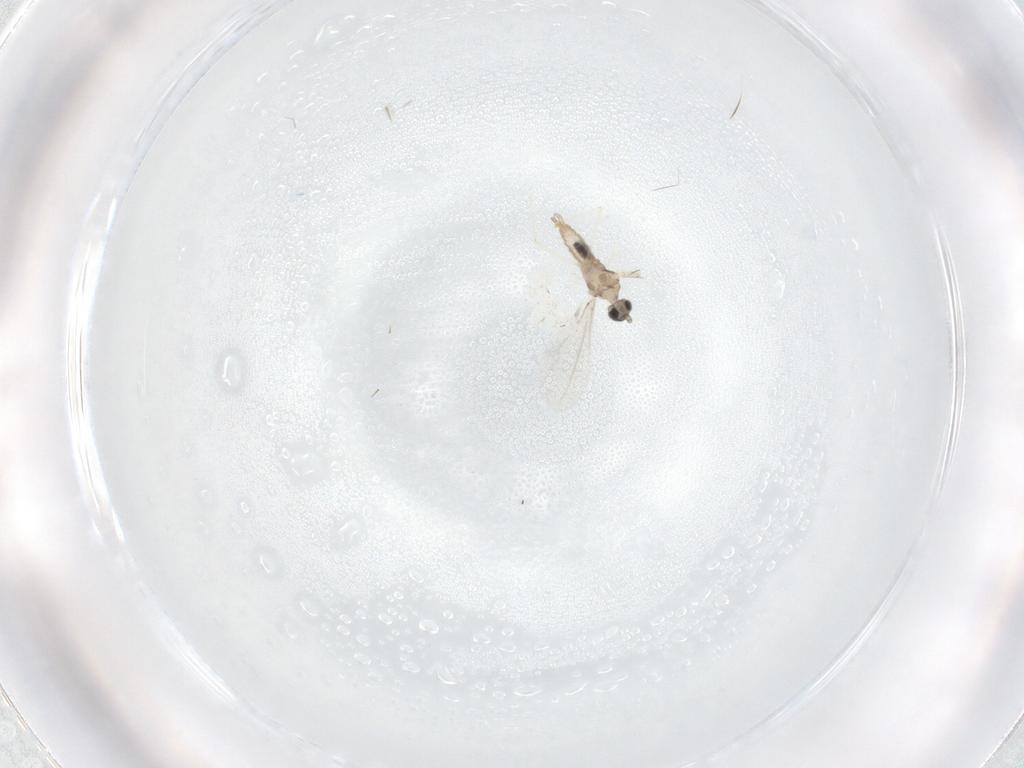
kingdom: Animalia
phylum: Arthropoda
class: Insecta
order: Diptera
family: Cecidomyiidae
